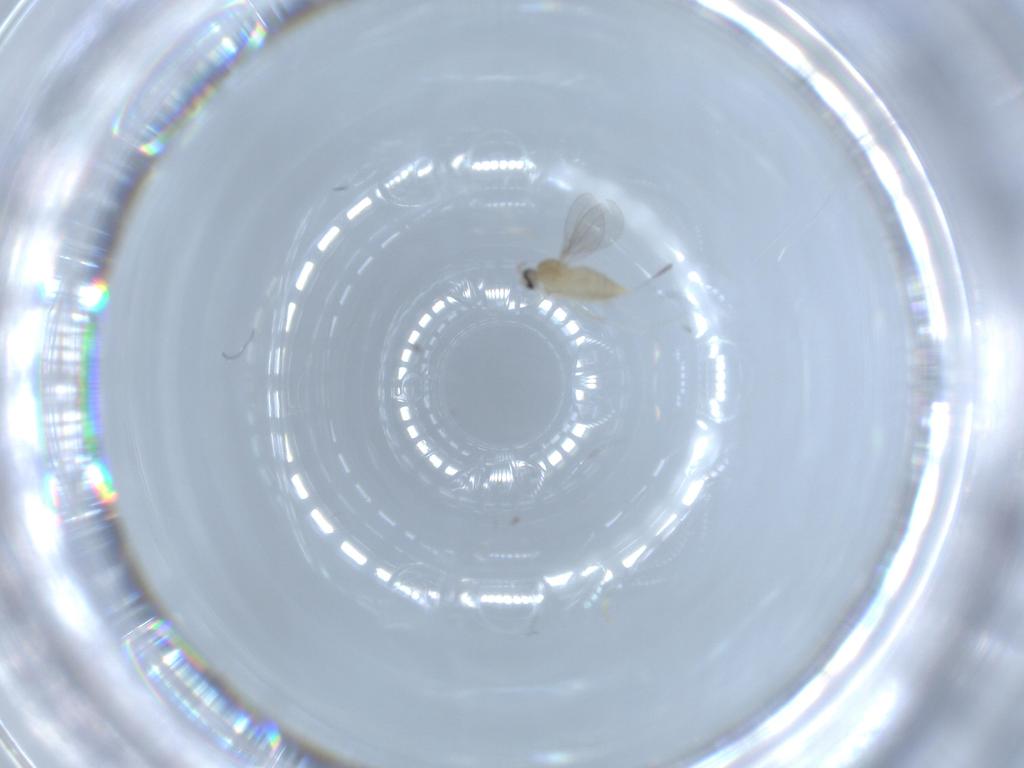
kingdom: Animalia
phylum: Arthropoda
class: Insecta
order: Diptera
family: Cecidomyiidae
